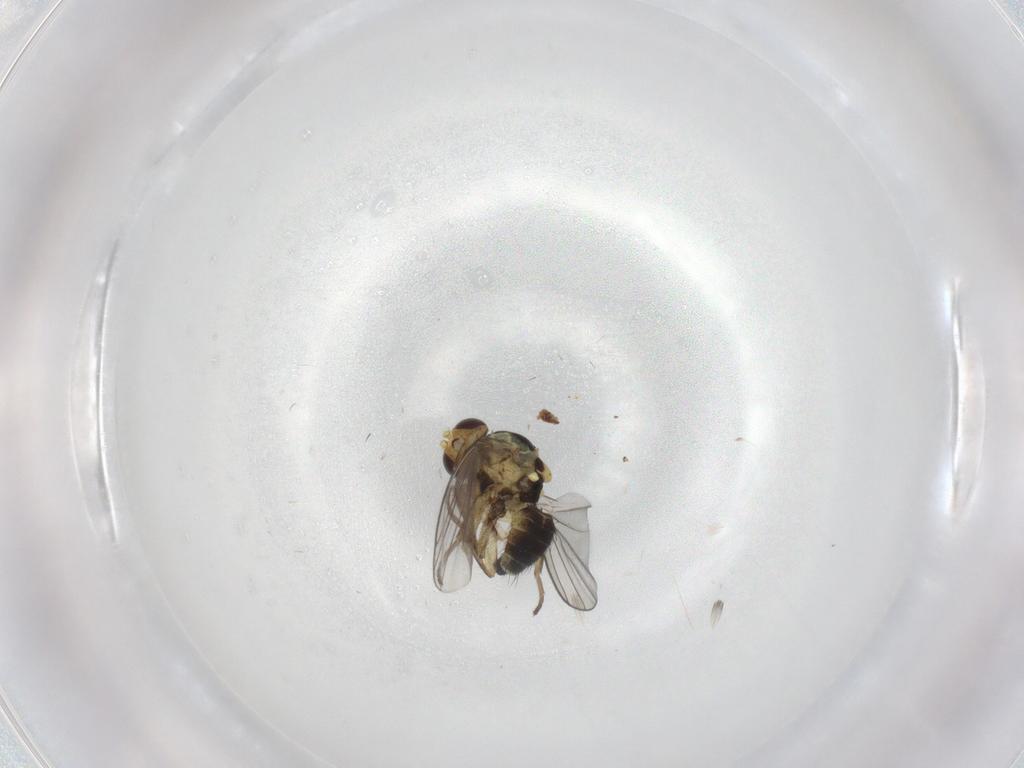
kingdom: Animalia
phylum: Arthropoda
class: Insecta
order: Diptera
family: Agromyzidae
